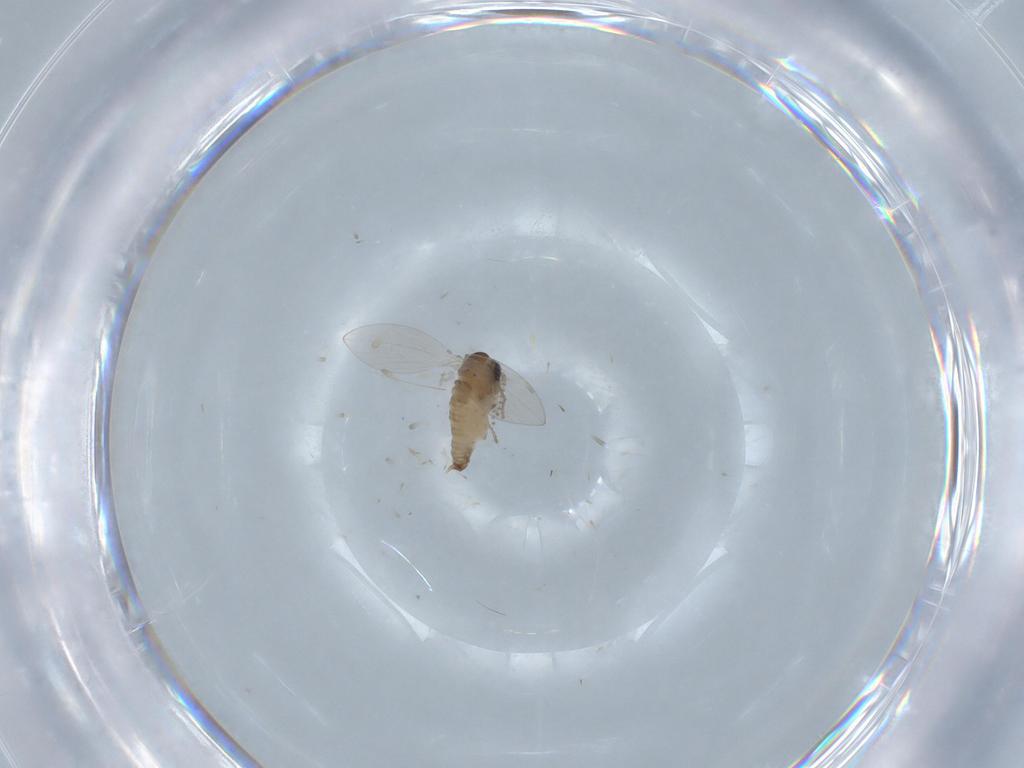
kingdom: Animalia
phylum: Arthropoda
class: Insecta
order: Diptera
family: Psychodidae
